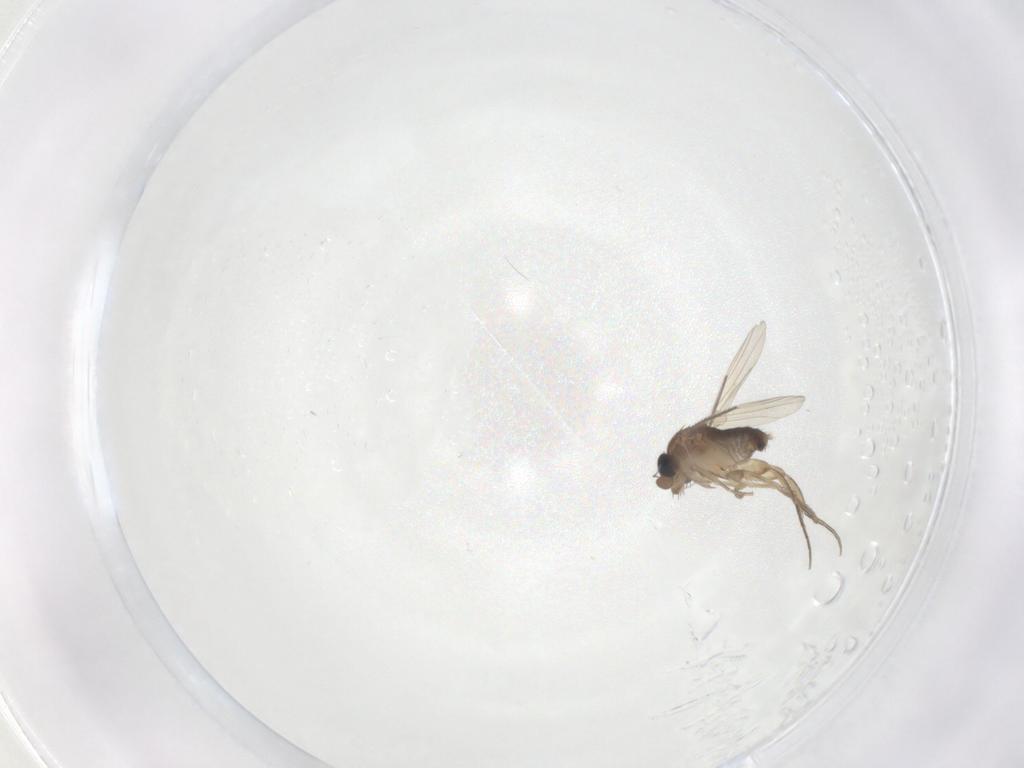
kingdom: Animalia
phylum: Arthropoda
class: Insecta
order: Diptera
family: Phoridae
